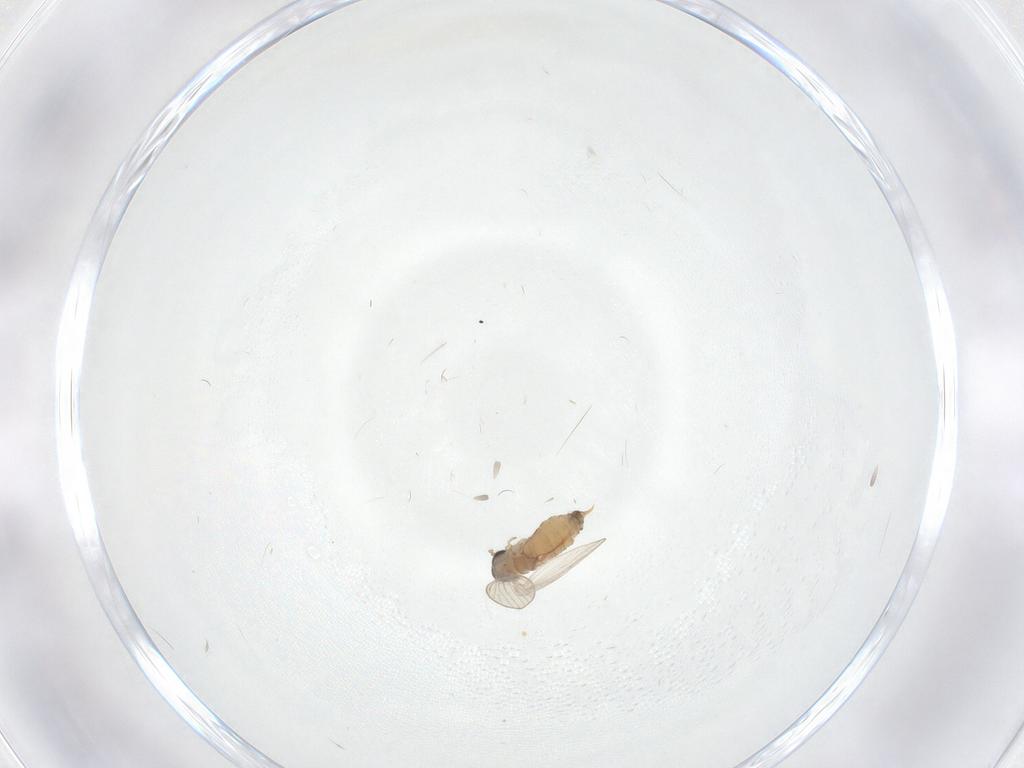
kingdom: Animalia
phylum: Arthropoda
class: Insecta
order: Diptera
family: Psychodidae
